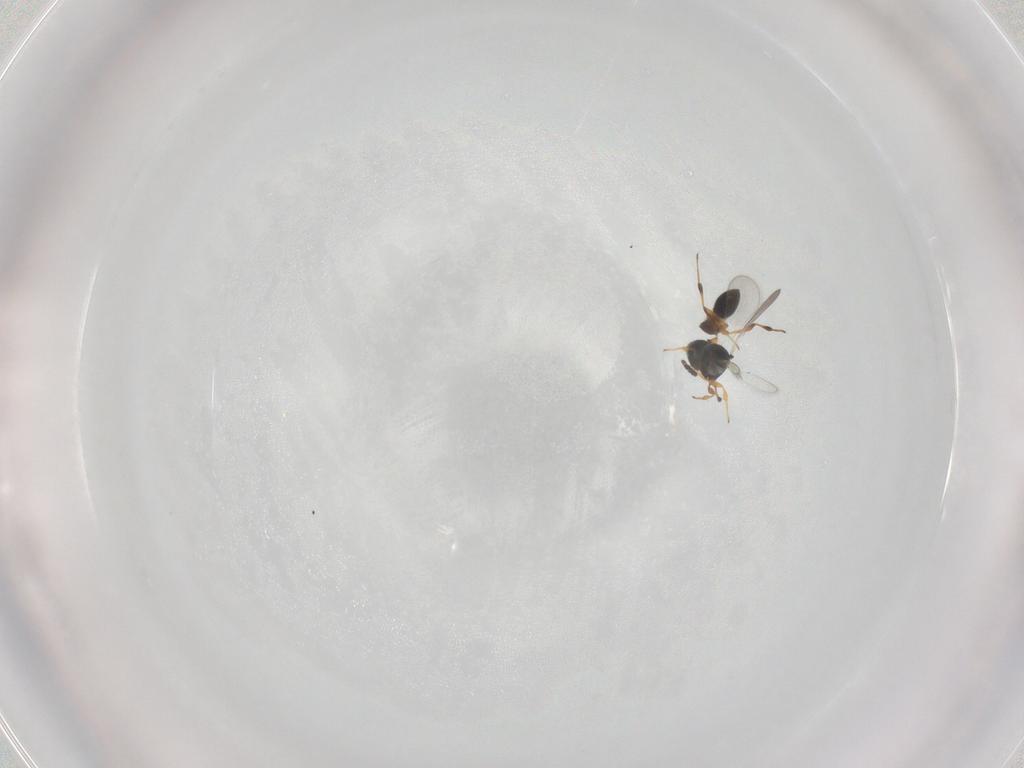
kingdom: Animalia
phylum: Arthropoda
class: Insecta
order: Hymenoptera
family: Platygastridae
